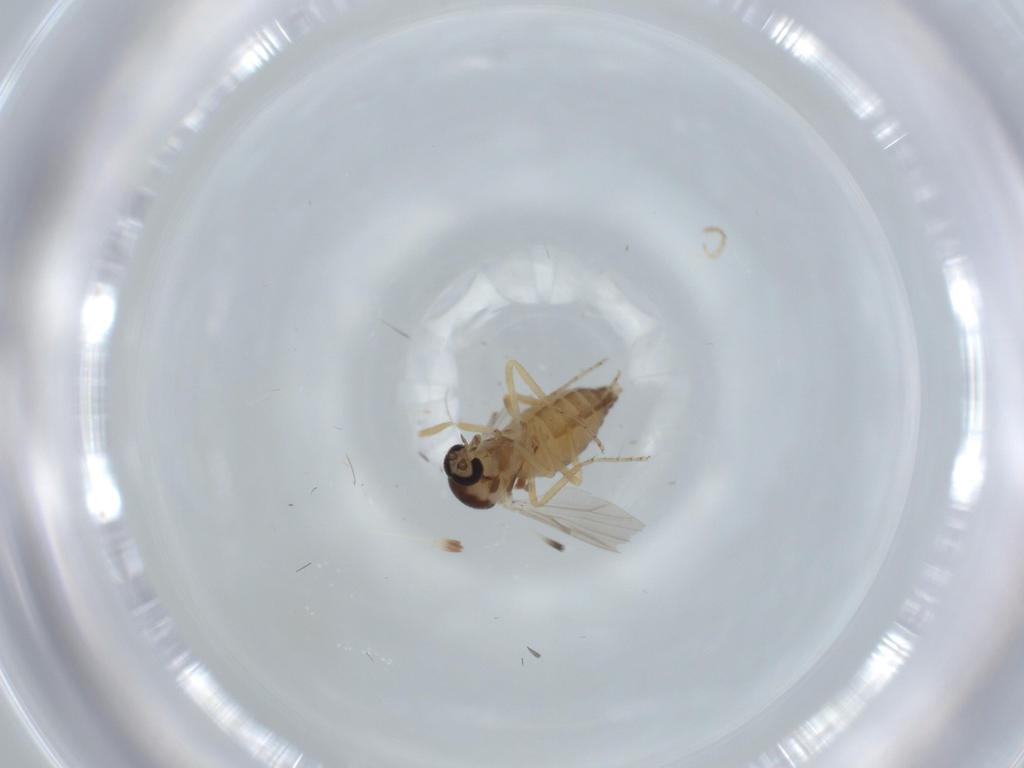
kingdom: Animalia
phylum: Arthropoda
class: Insecta
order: Diptera
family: Ceratopogonidae
